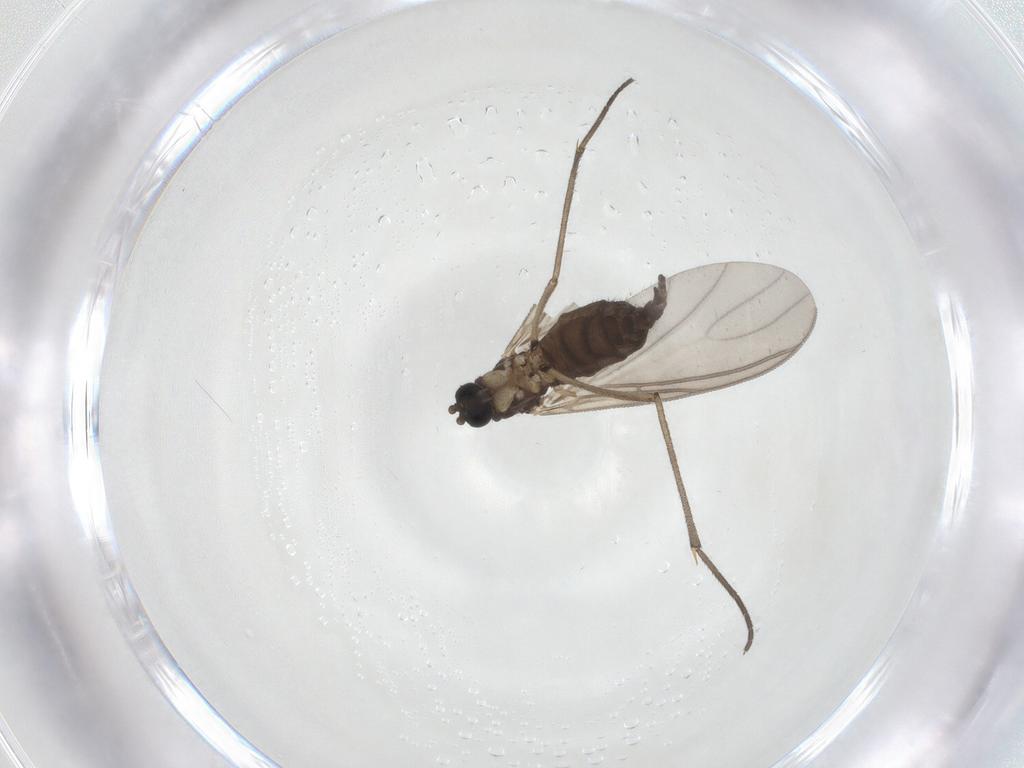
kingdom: Animalia
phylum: Arthropoda
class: Insecta
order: Diptera
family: Sciaridae
